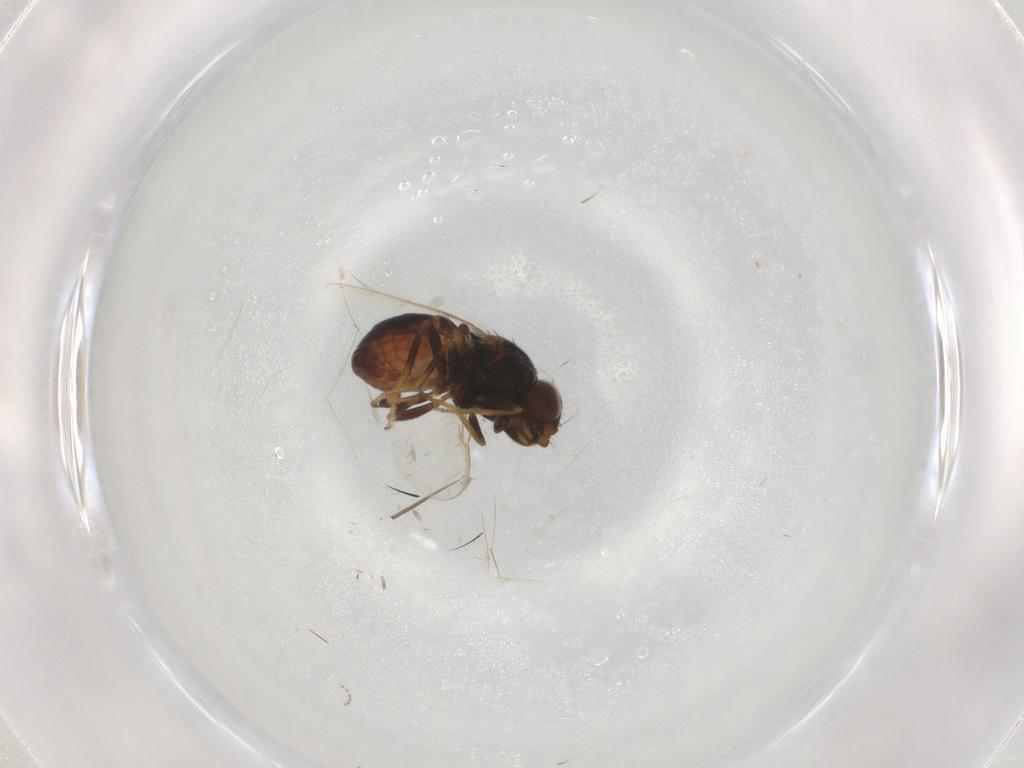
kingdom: Animalia
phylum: Arthropoda
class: Insecta
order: Diptera
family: Chloropidae
